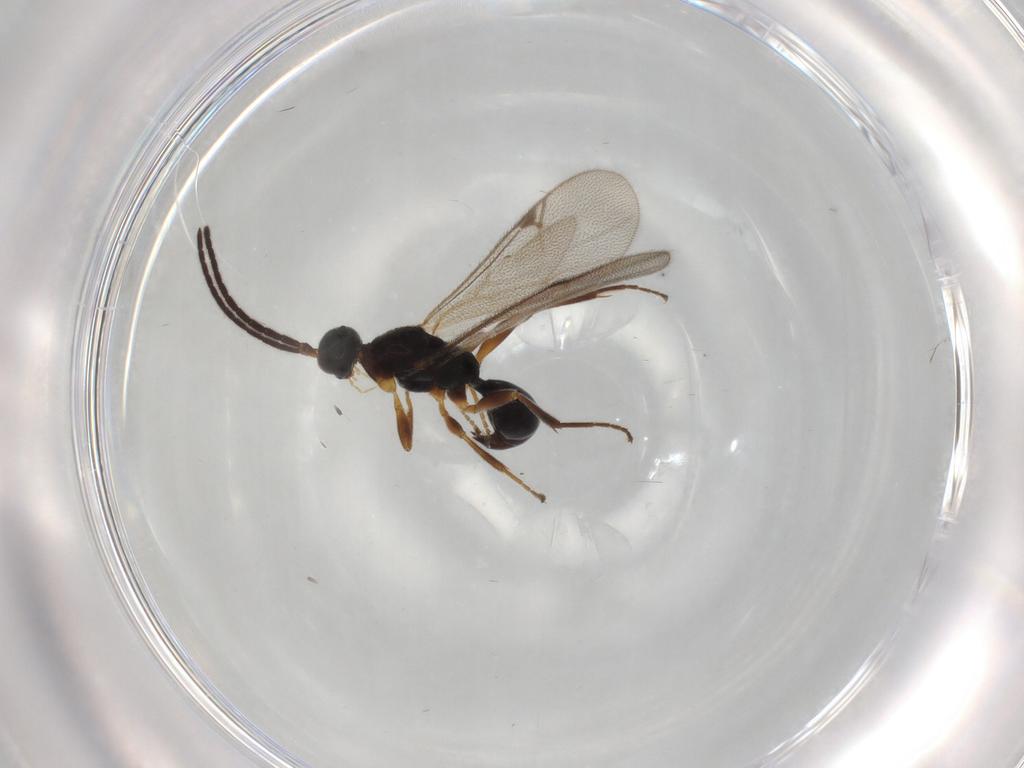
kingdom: Animalia
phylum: Arthropoda
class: Insecta
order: Hymenoptera
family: Proctotrupidae
